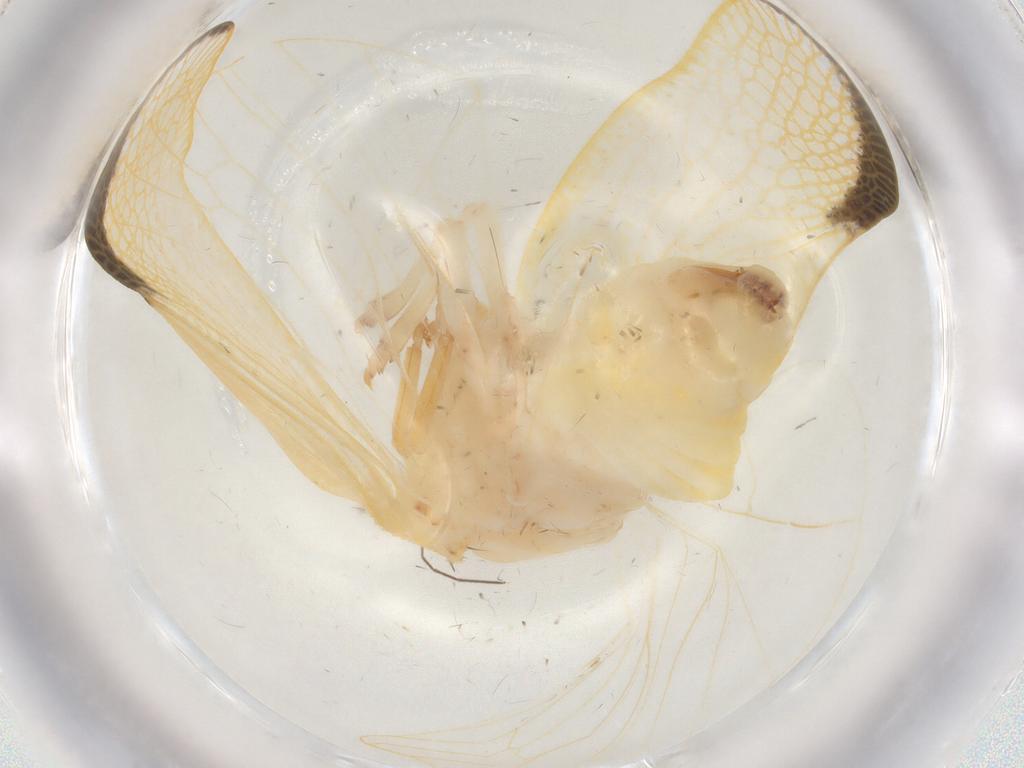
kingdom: Animalia
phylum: Arthropoda
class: Insecta
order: Hemiptera
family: Flatidae
